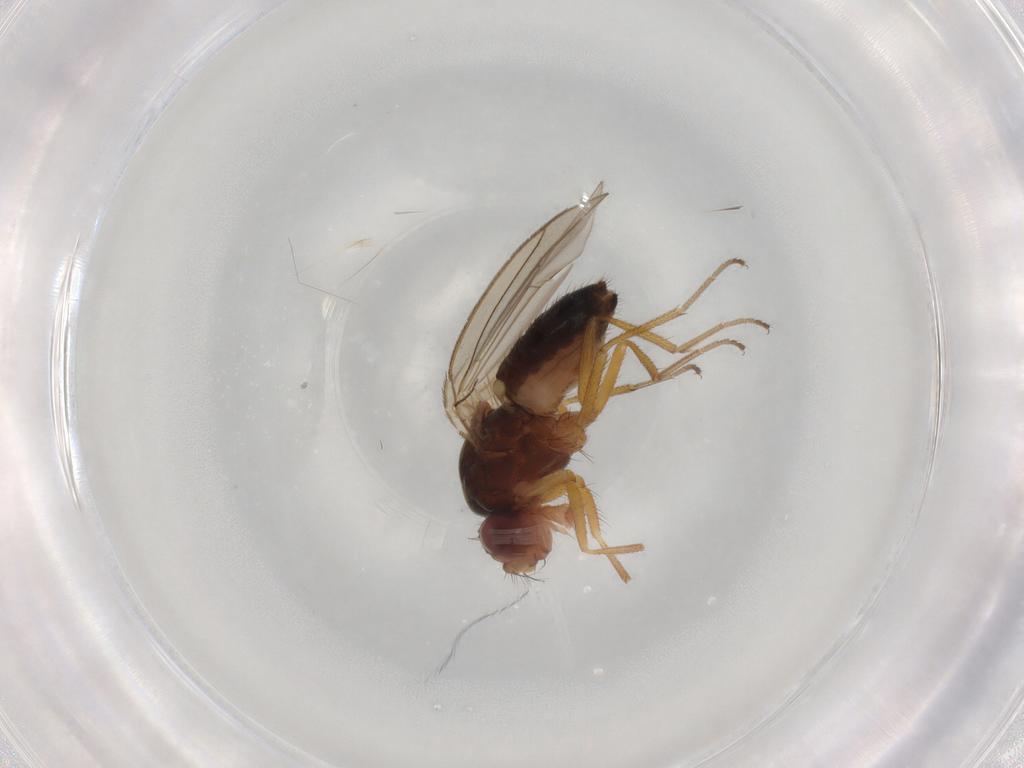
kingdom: Animalia
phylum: Arthropoda
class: Insecta
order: Diptera
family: Drosophilidae
